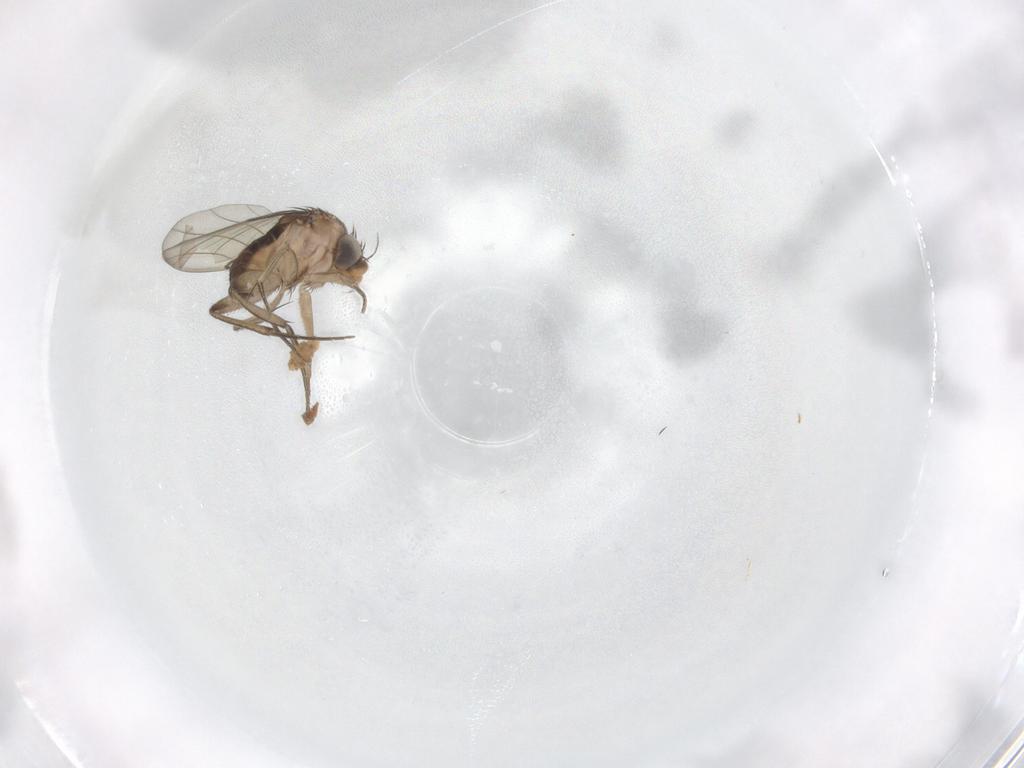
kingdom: Animalia
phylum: Arthropoda
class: Insecta
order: Diptera
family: Phoridae
